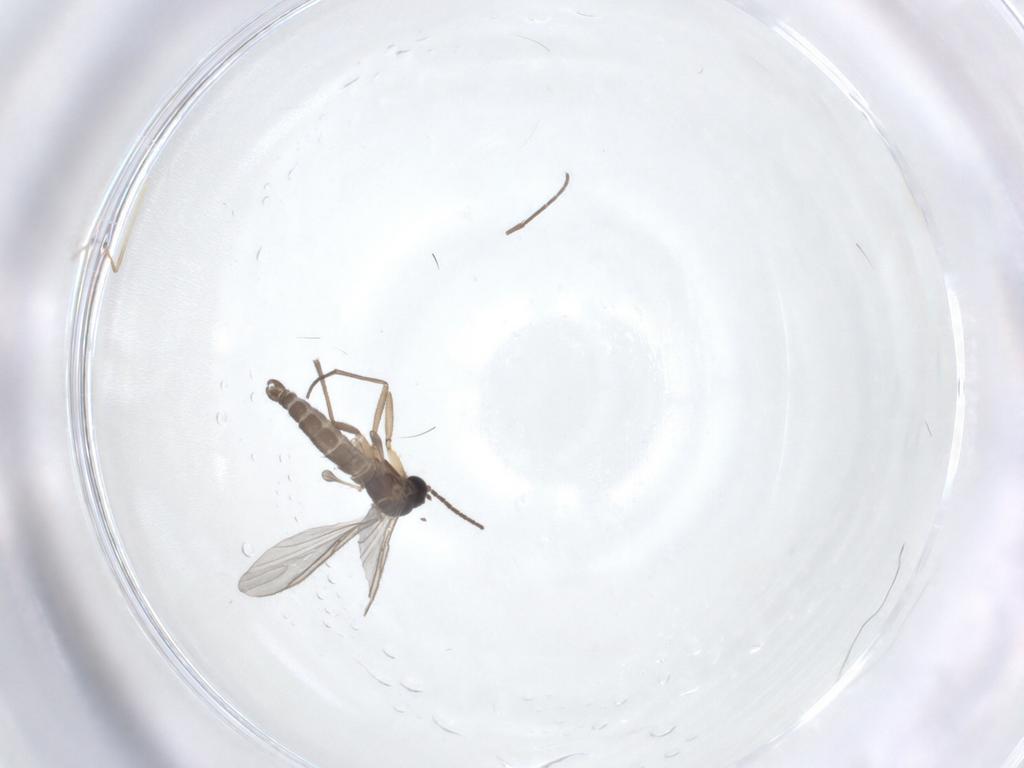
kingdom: Animalia
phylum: Arthropoda
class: Insecta
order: Diptera
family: Sciaridae
